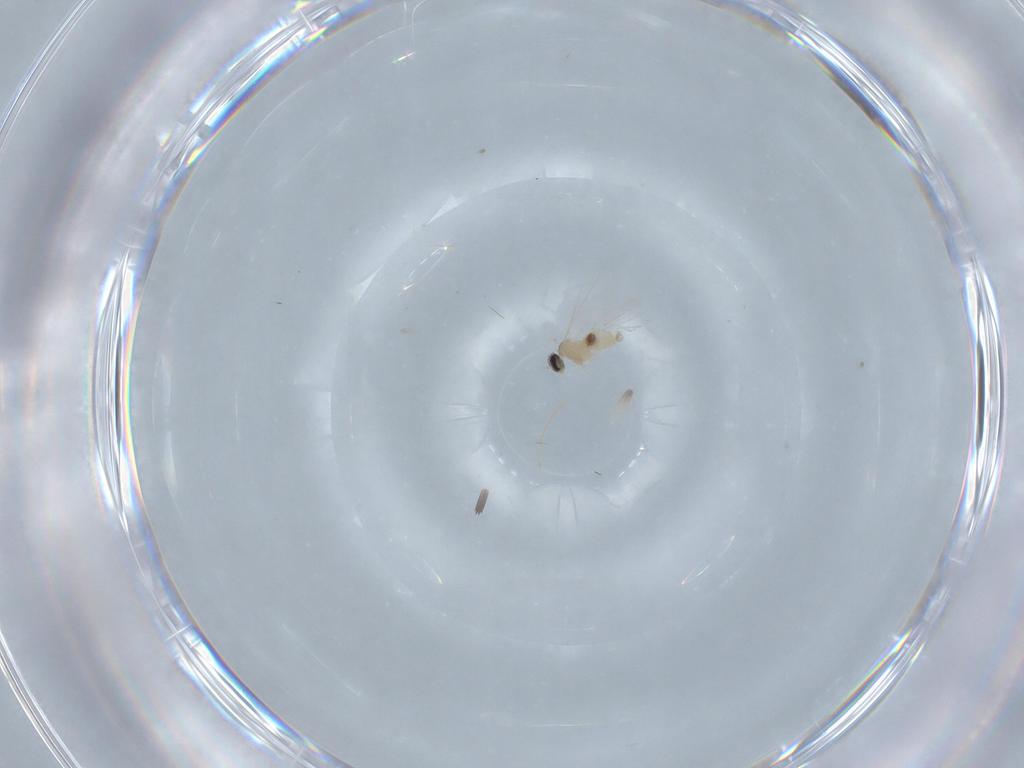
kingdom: Animalia
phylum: Arthropoda
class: Insecta
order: Diptera
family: Cecidomyiidae
